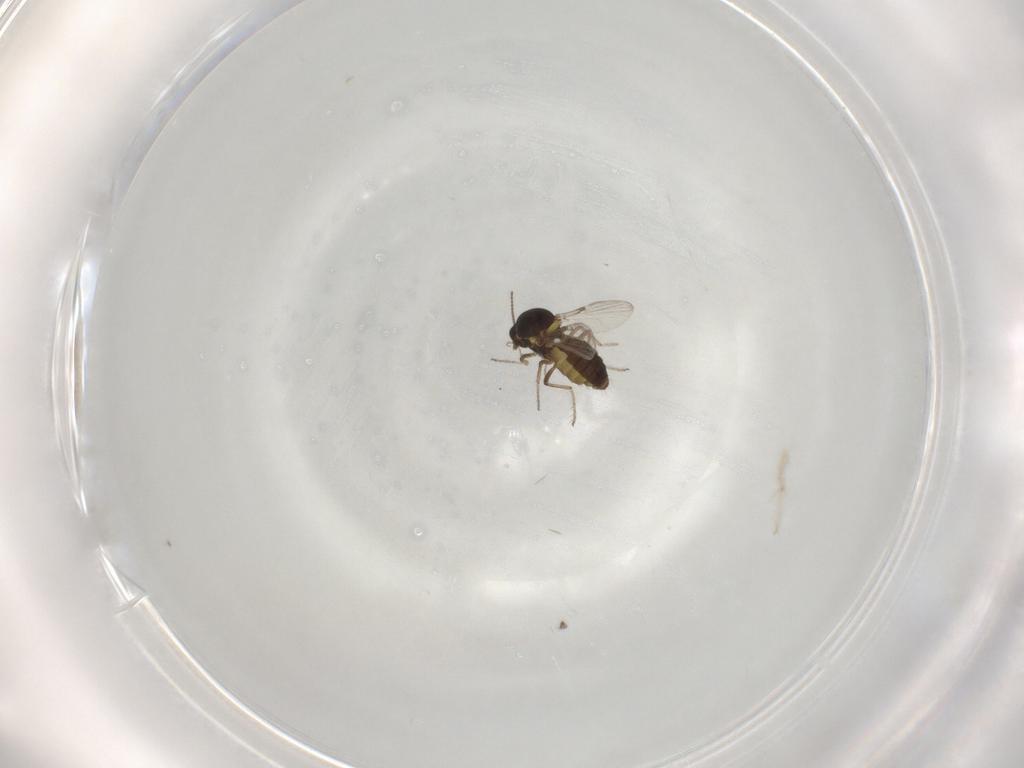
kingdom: Animalia
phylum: Arthropoda
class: Insecta
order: Diptera
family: Ceratopogonidae
